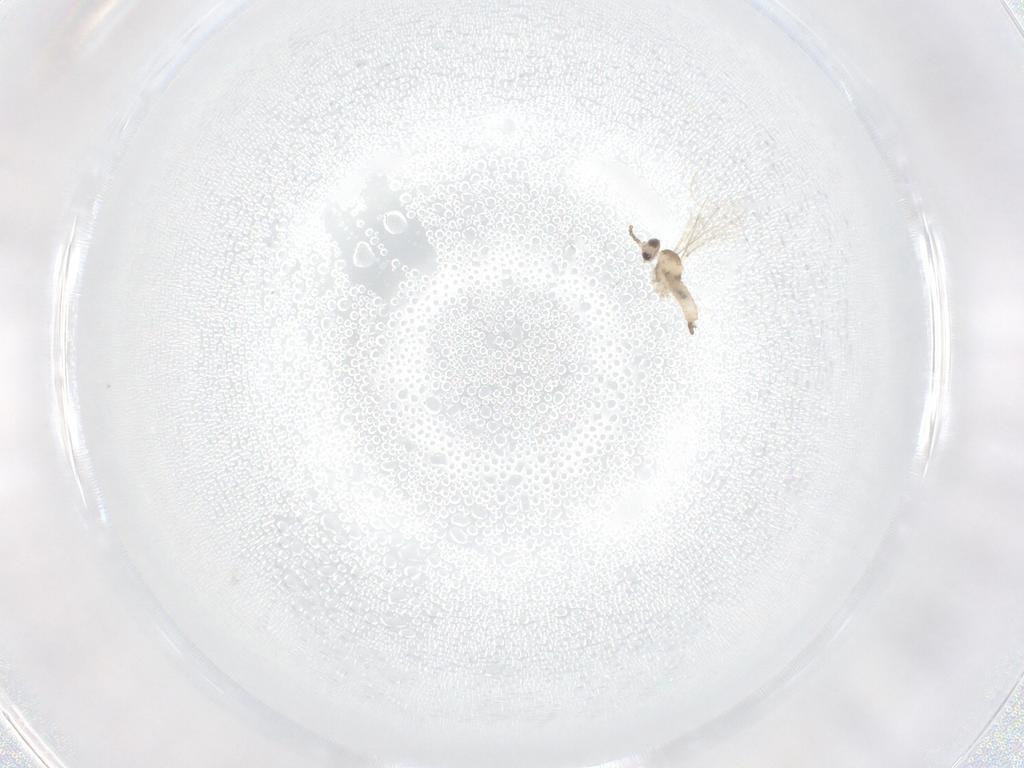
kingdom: Animalia
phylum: Arthropoda
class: Insecta
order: Diptera
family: Cecidomyiidae
